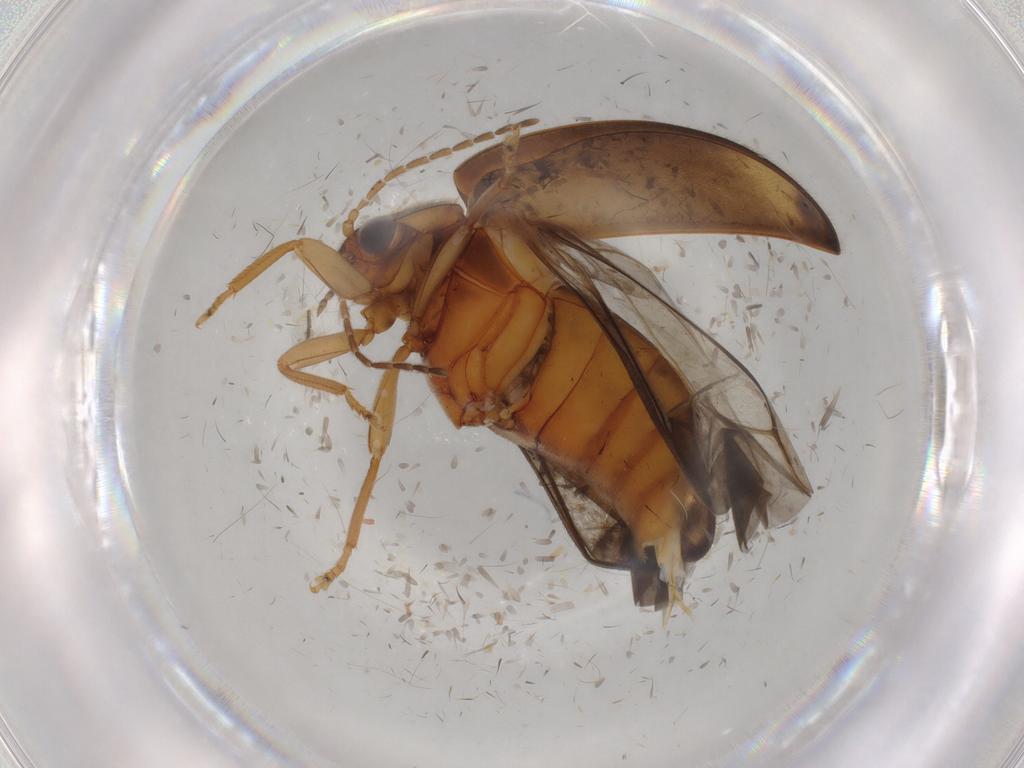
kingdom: Animalia
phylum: Arthropoda
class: Insecta
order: Coleoptera
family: Scirtidae
